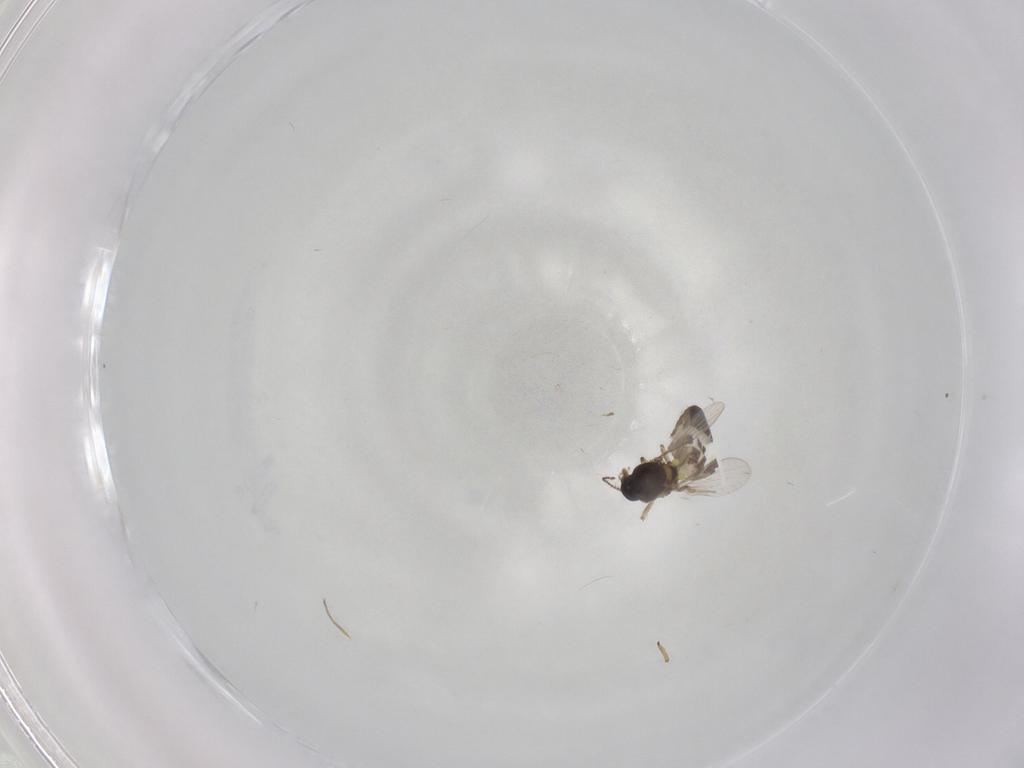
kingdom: Animalia
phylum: Arthropoda
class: Insecta
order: Diptera
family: Ceratopogonidae
